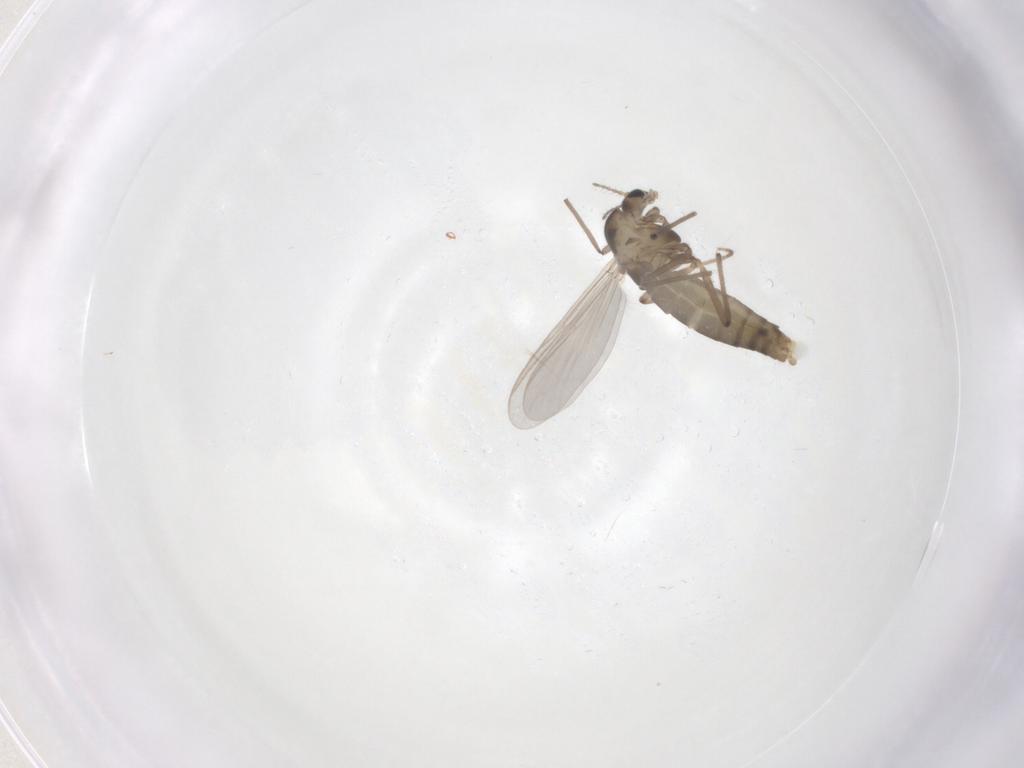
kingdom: Animalia
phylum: Arthropoda
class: Insecta
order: Diptera
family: Chironomidae
